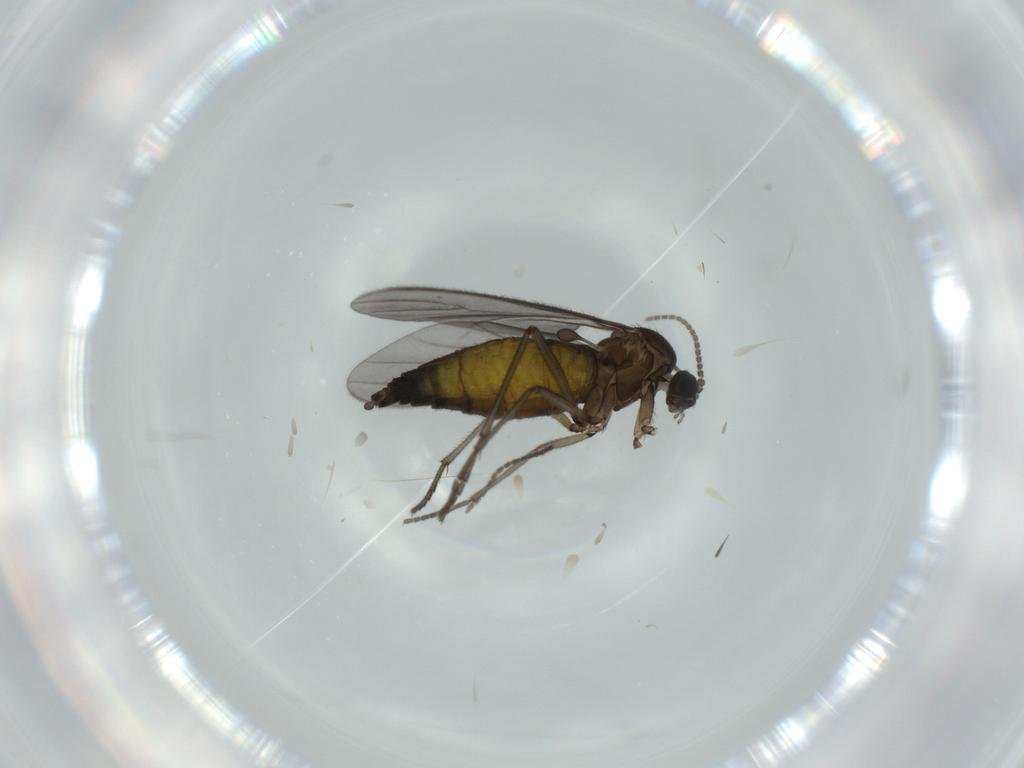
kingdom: Animalia
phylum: Arthropoda
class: Insecta
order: Diptera
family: Sciaridae
